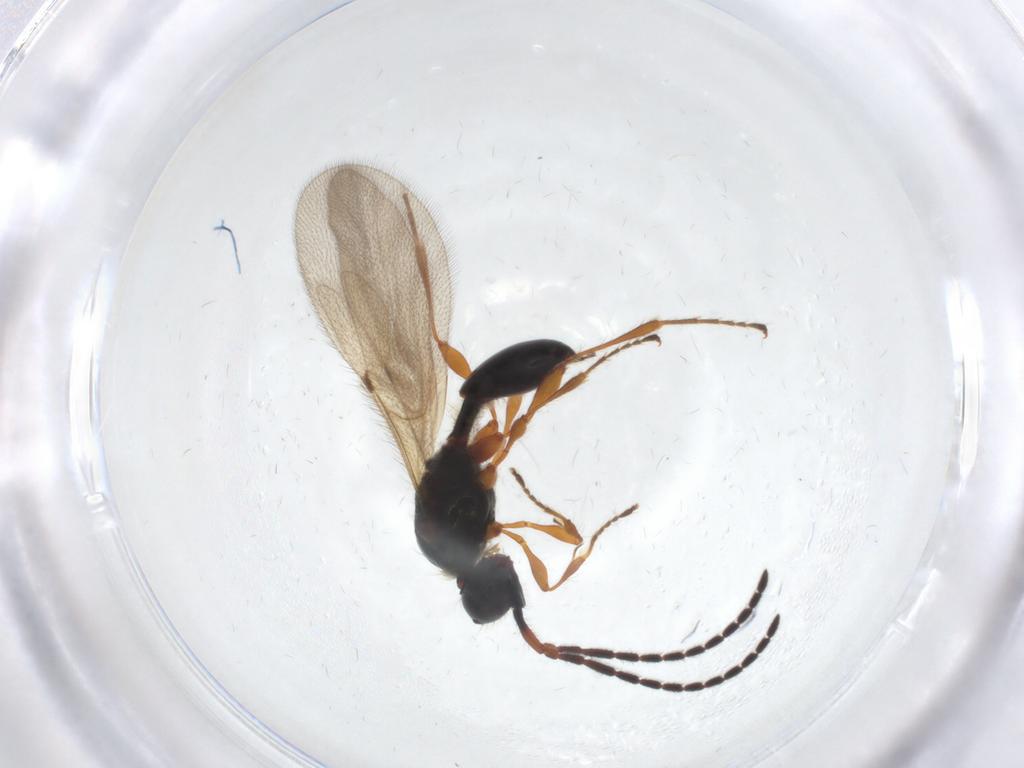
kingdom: Animalia
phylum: Arthropoda
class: Insecta
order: Hymenoptera
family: Diapriidae
